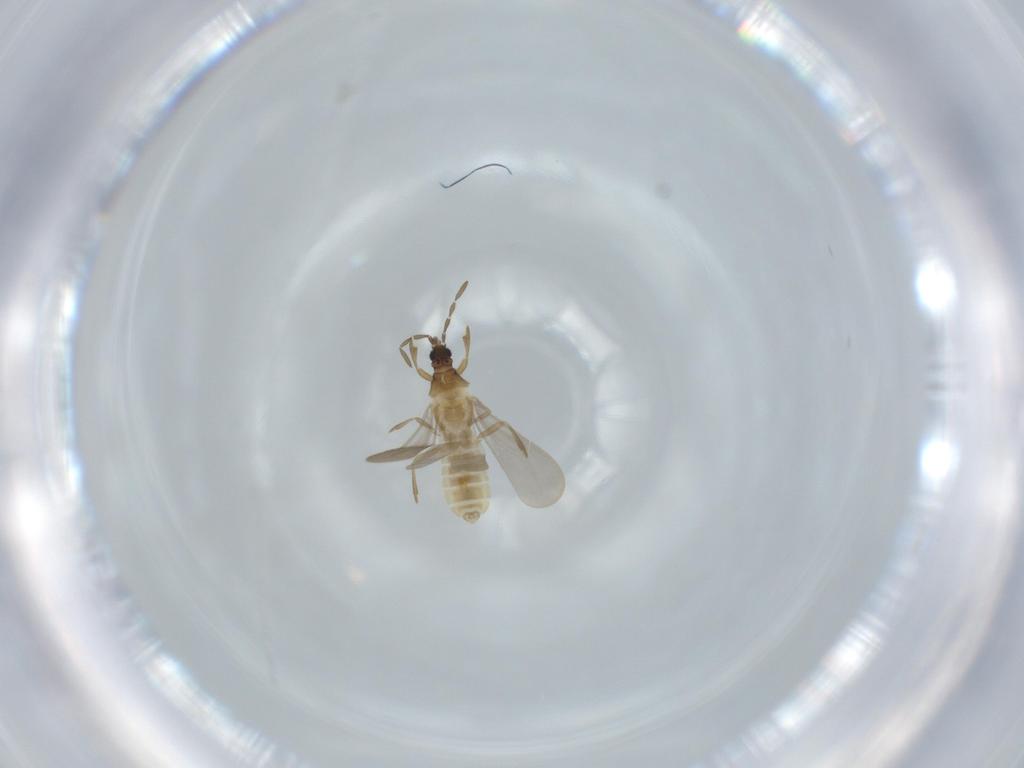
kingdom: Animalia
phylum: Arthropoda
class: Insecta
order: Hemiptera
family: Enicocephalidae
